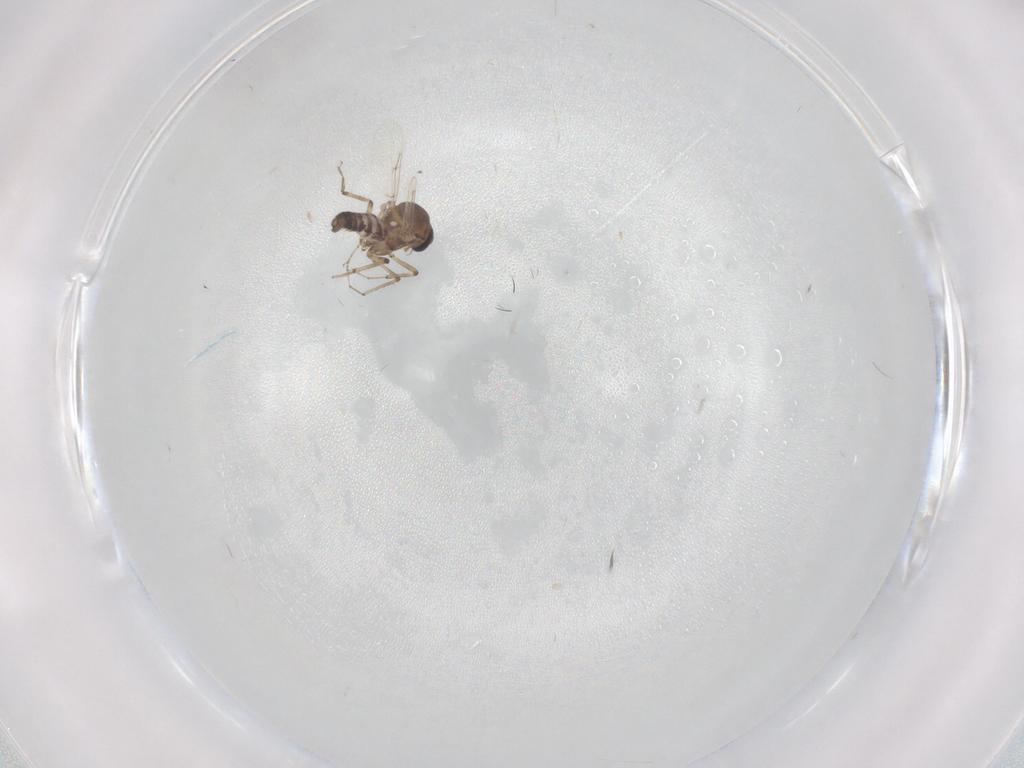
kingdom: Animalia
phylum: Arthropoda
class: Insecta
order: Diptera
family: Ceratopogonidae
